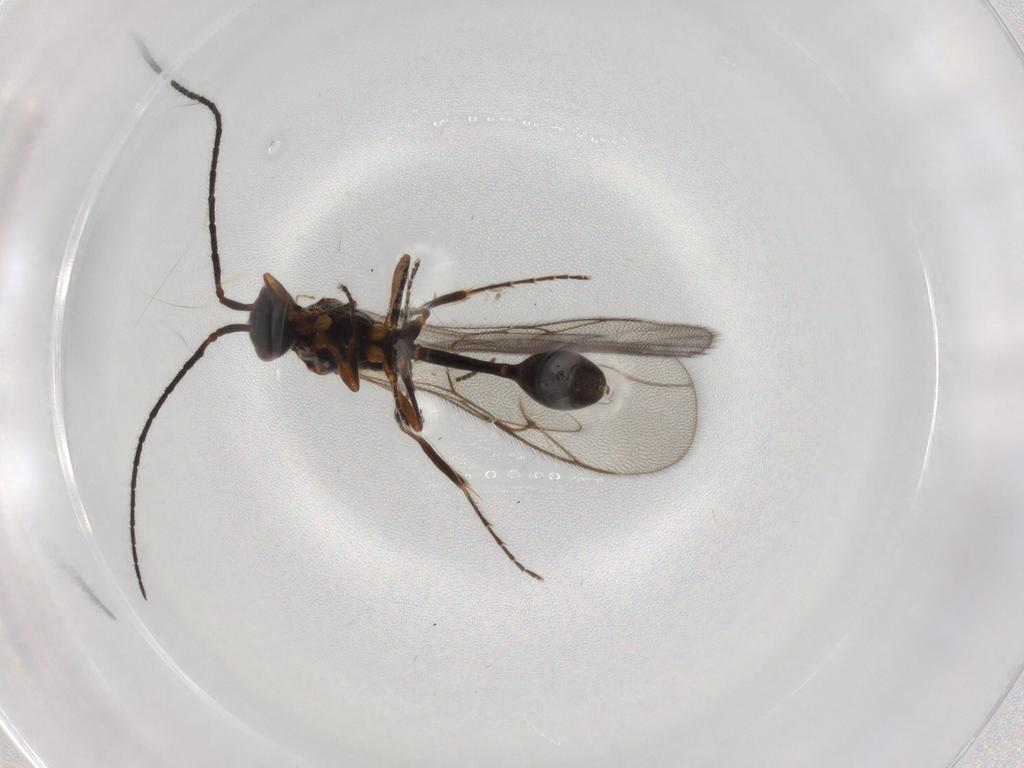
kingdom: Animalia
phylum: Arthropoda
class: Insecta
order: Hymenoptera
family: Diapriidae
